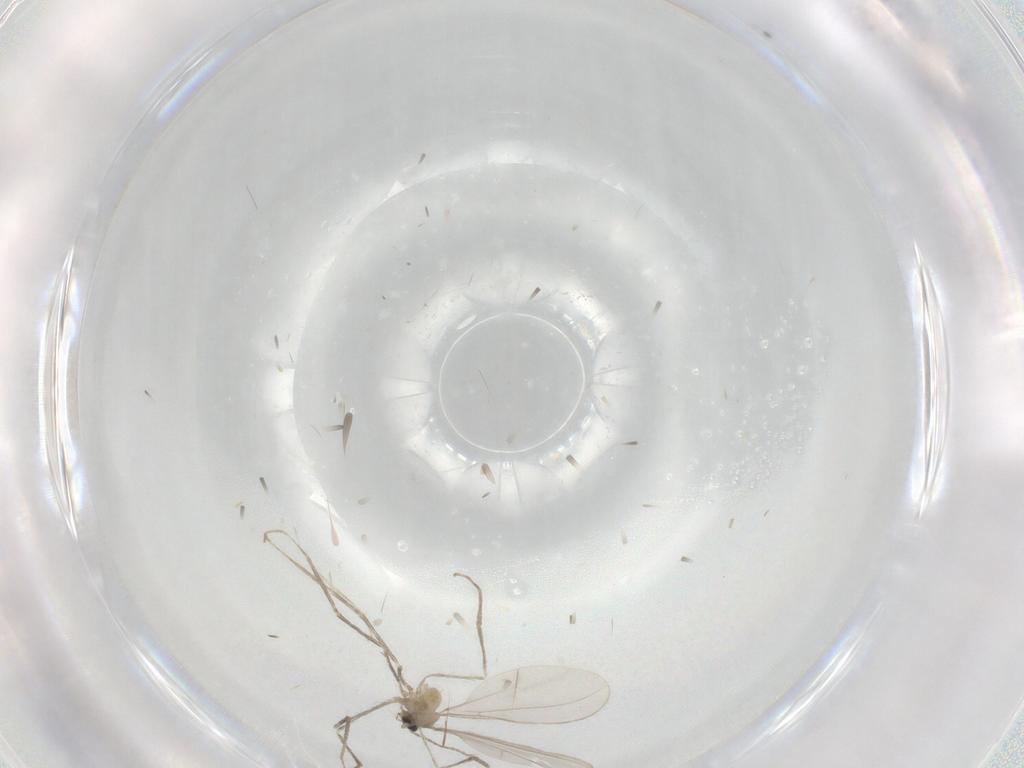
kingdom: Animalia
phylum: Arthropoda
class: Insecta
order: Diptera
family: Cecidomyiidae
